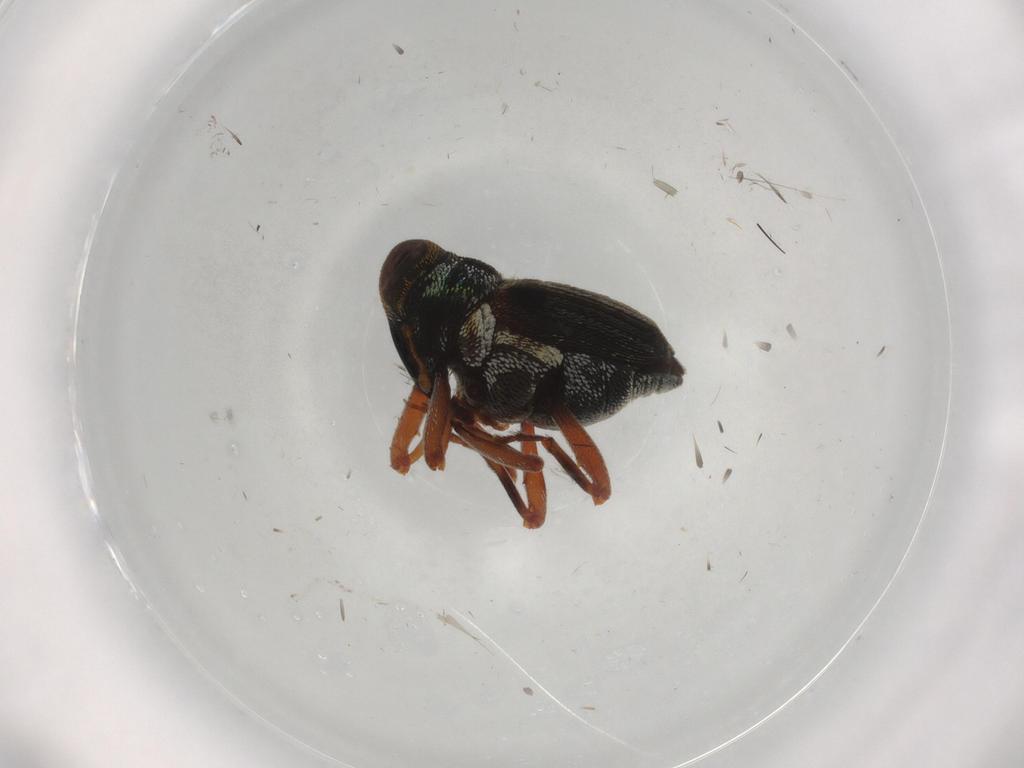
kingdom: Animalia
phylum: Arthropoda
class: Insecta
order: Coleoptera
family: Curculionidae
